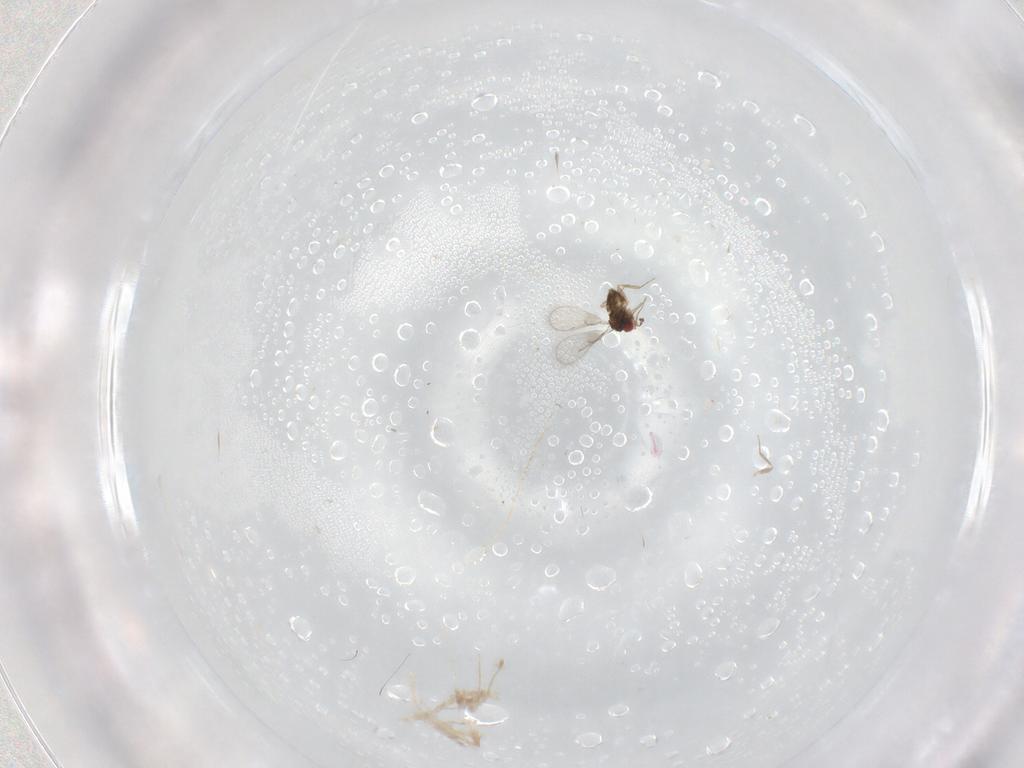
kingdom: Animalia
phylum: Arthropoda
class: Insecta
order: Hymenoptera
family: Trichogrammatidae
